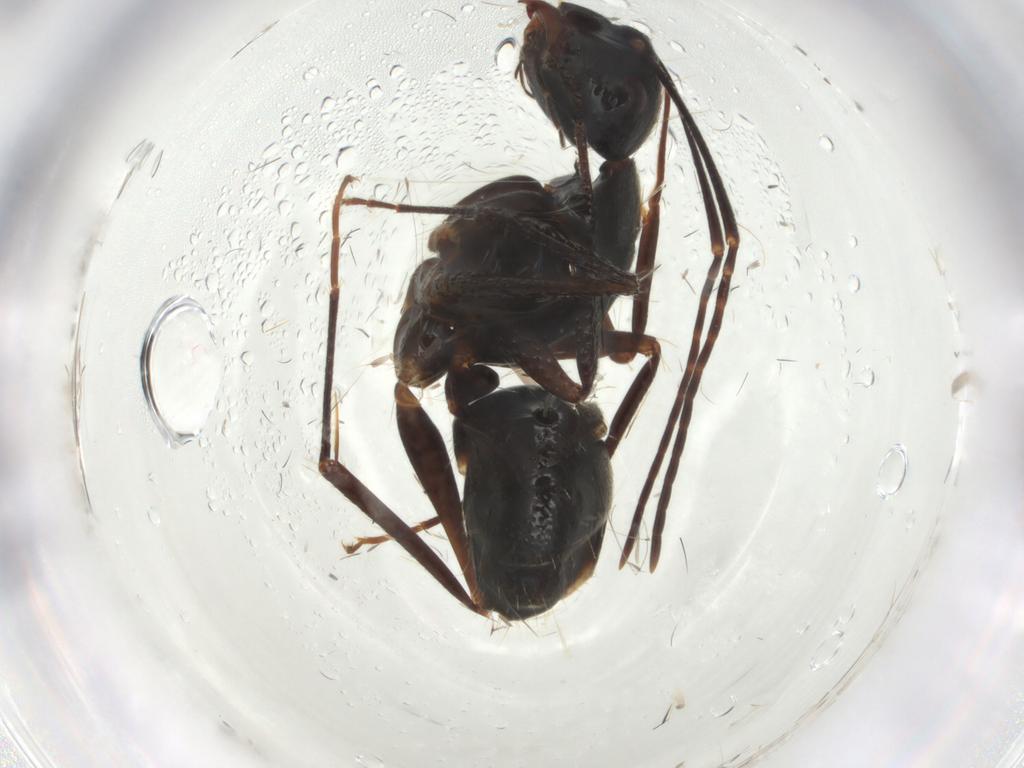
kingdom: Animalia
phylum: Arthropoda
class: Insecta
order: Hymenoptera
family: Formicidae
